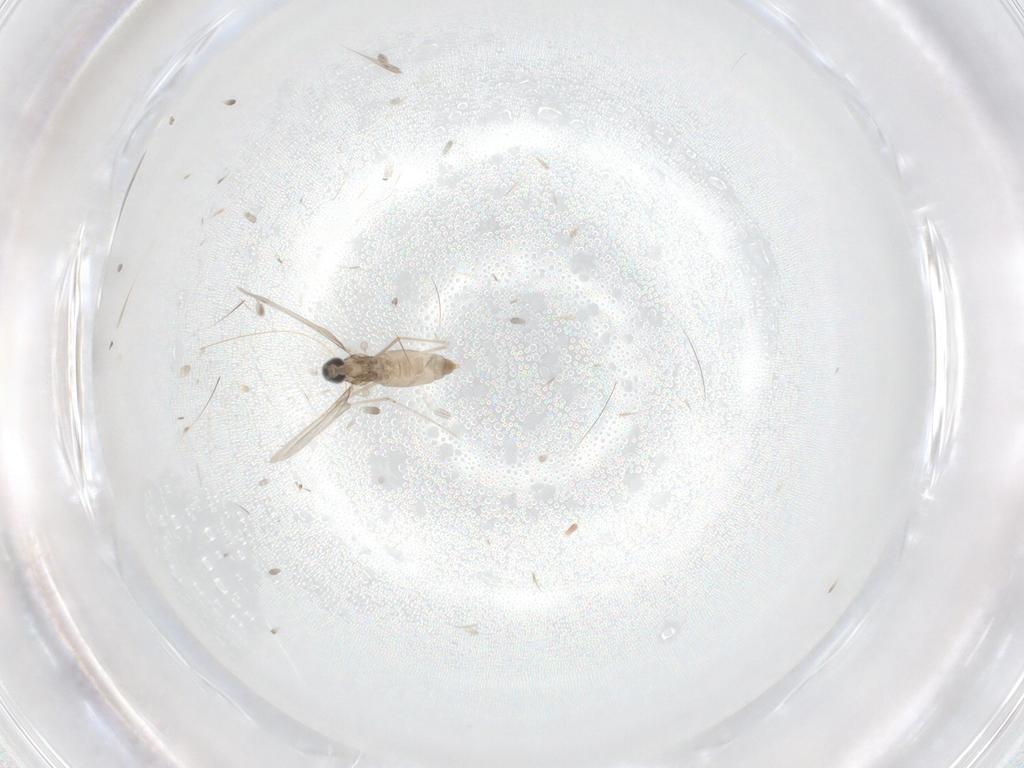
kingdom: Animalia
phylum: Arthropoda
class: Insecta
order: Diptera
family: Cecidomyiidae
